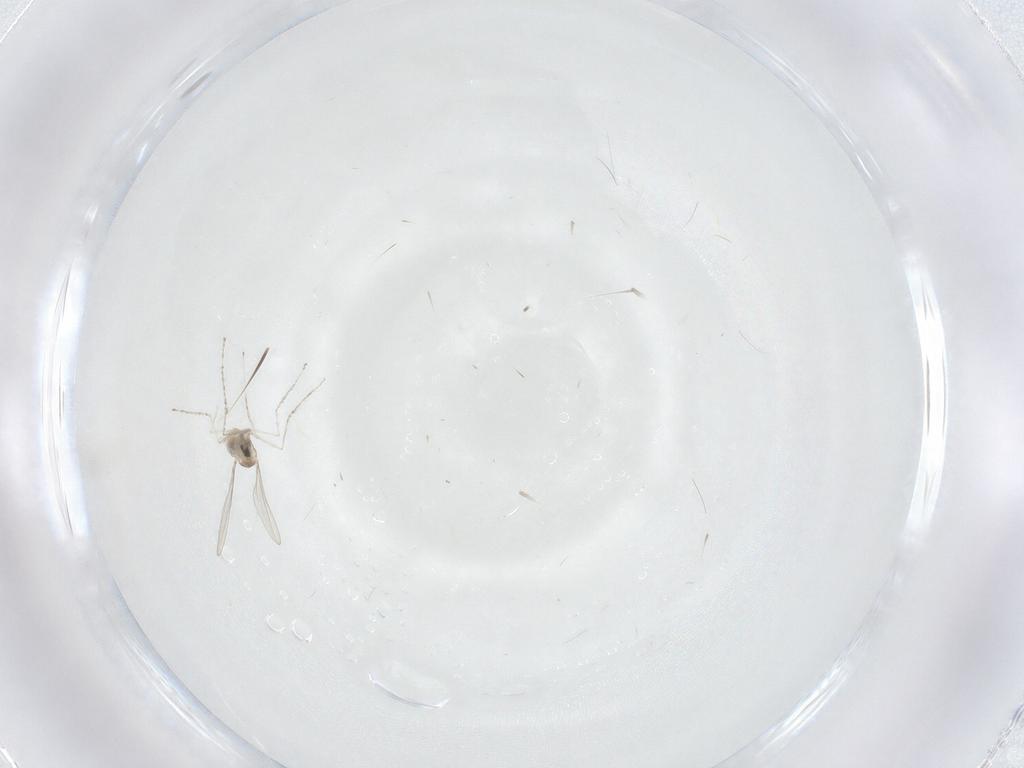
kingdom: Animalia
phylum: Arthropoda
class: Insecta
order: Diptera
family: Cecidomyiidae
